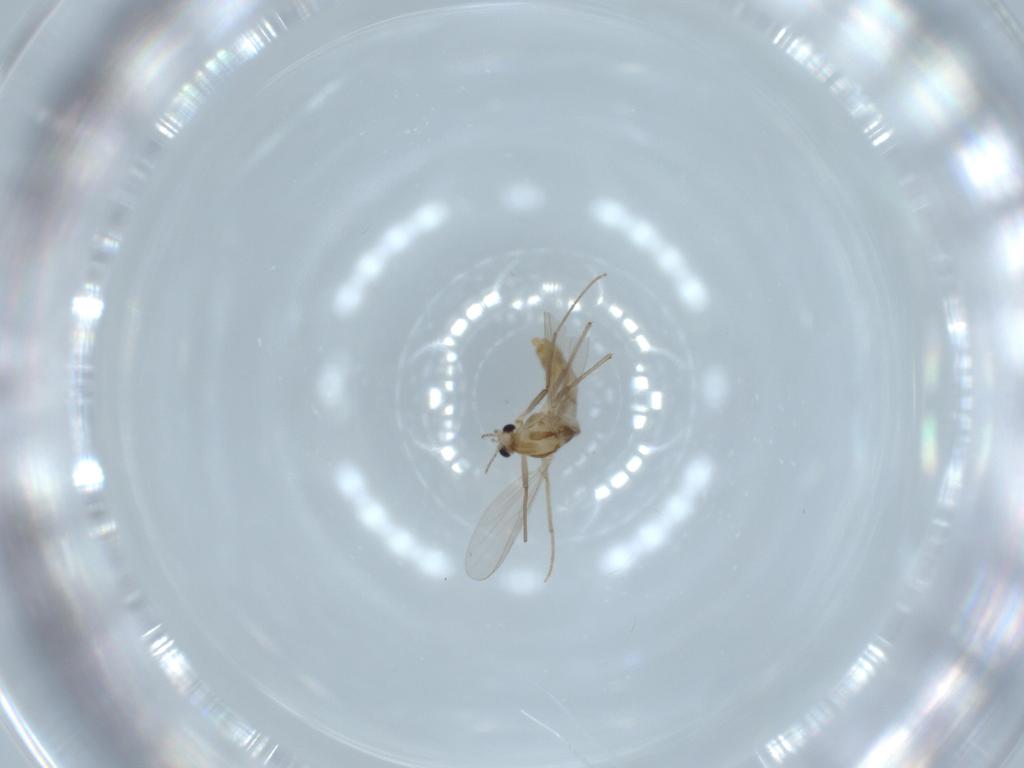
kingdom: Animalia
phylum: Arthropoda
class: Insecta
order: Diptera
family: Chironomidae
